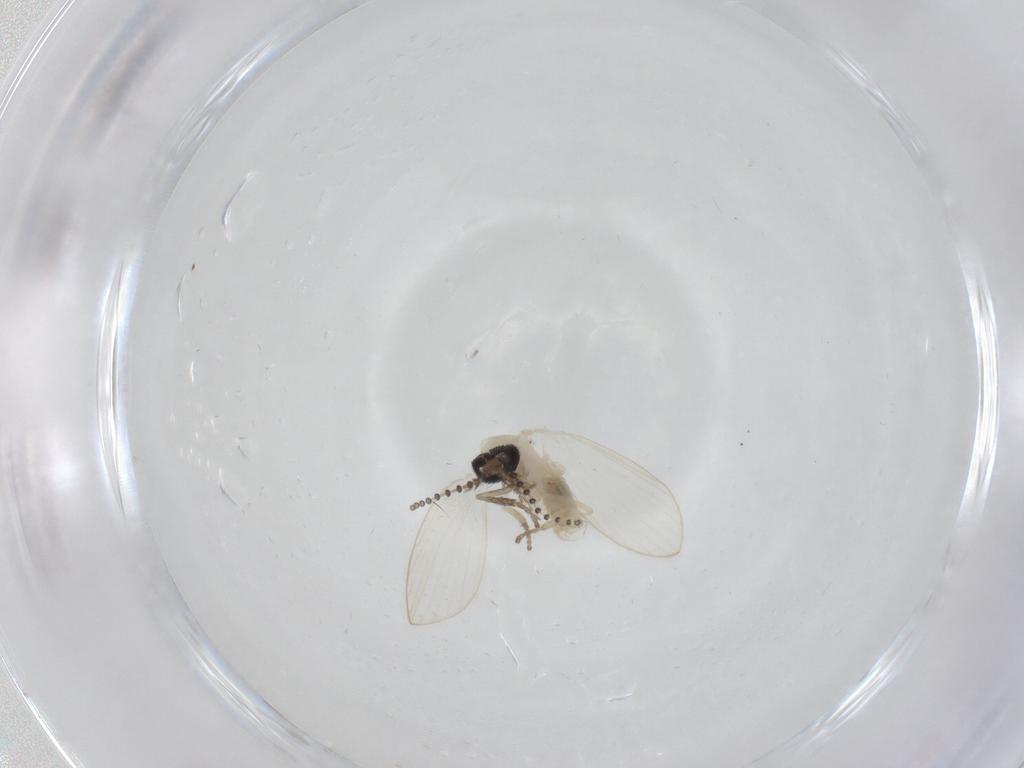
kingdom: Animalia
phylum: Arthropoda
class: Insecta
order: Diptera
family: Psychodidae
